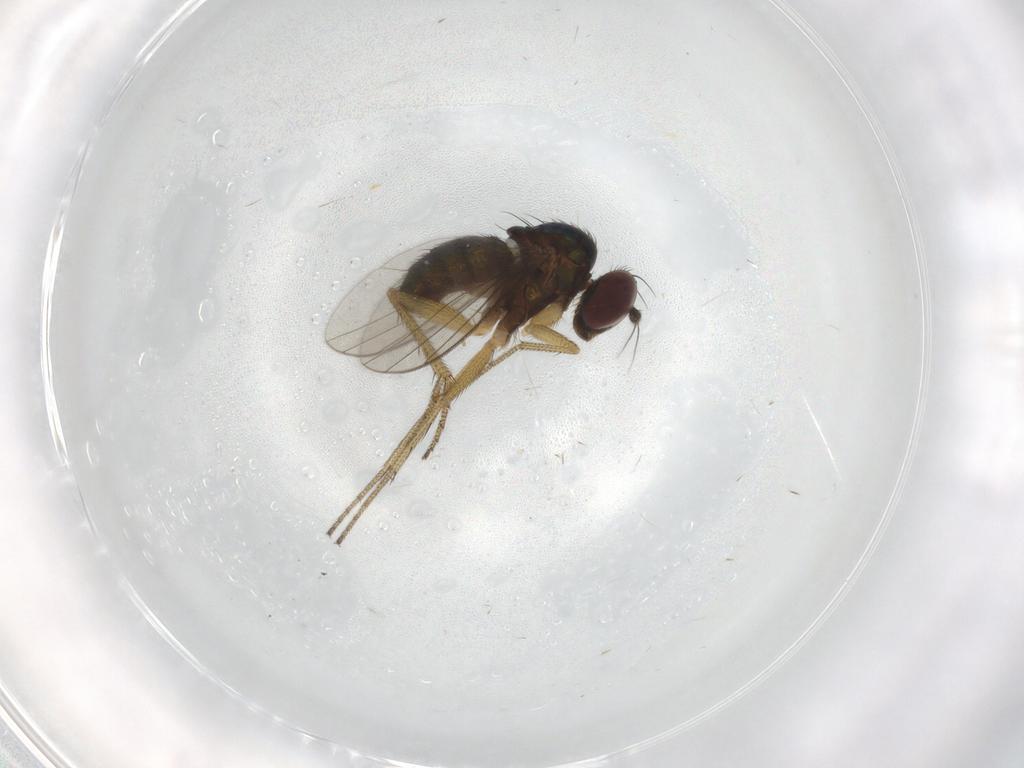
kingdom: Animalia
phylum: Arthropoda
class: Insecta
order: Diptera
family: Dolichopodidae
